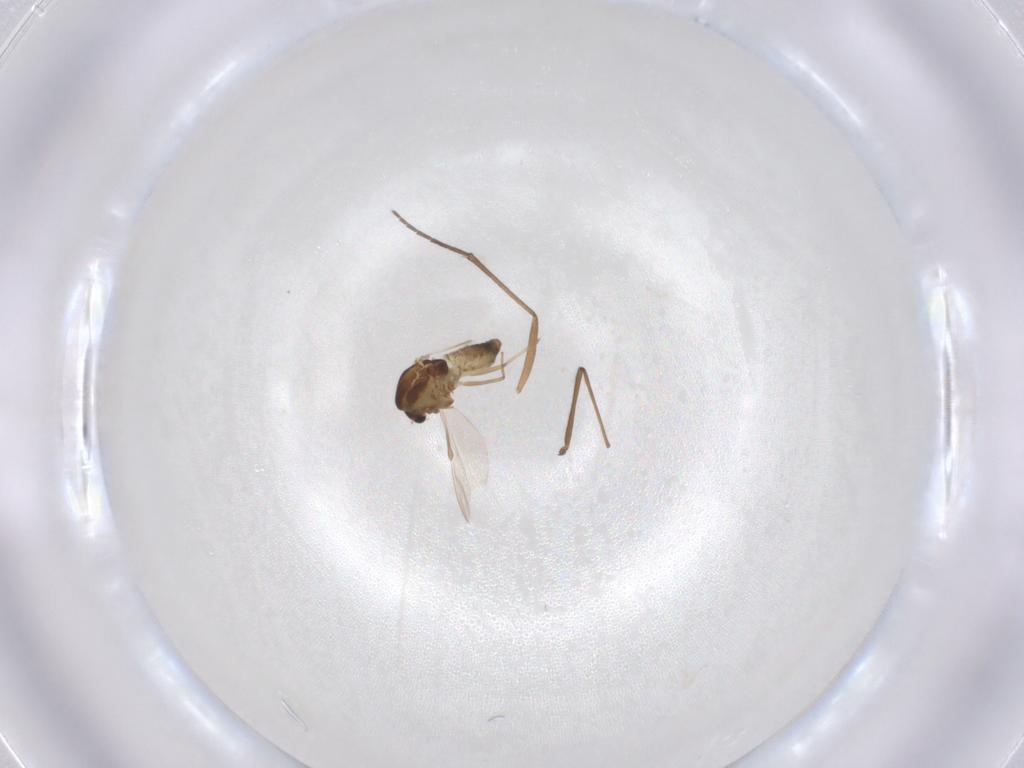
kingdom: Animalia
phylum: Arthropoda
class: Insecta
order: Diptera
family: Chironomidae
